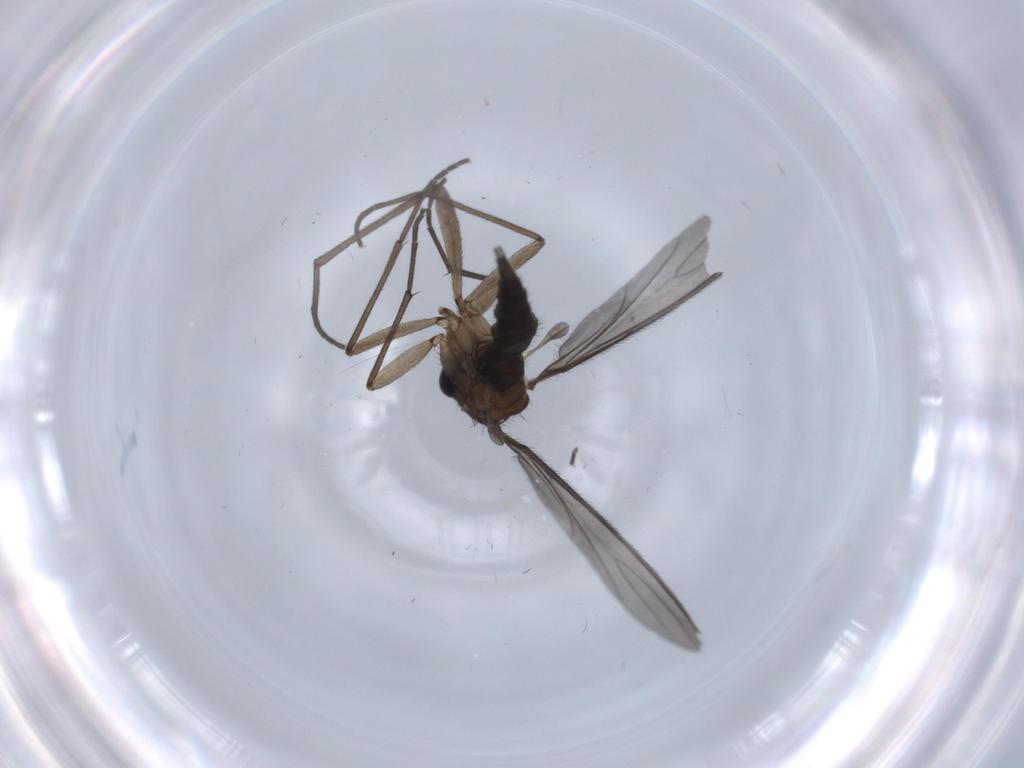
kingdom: Animalia
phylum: Arthropoda
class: Insecta
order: Diptera
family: Sciaridae
